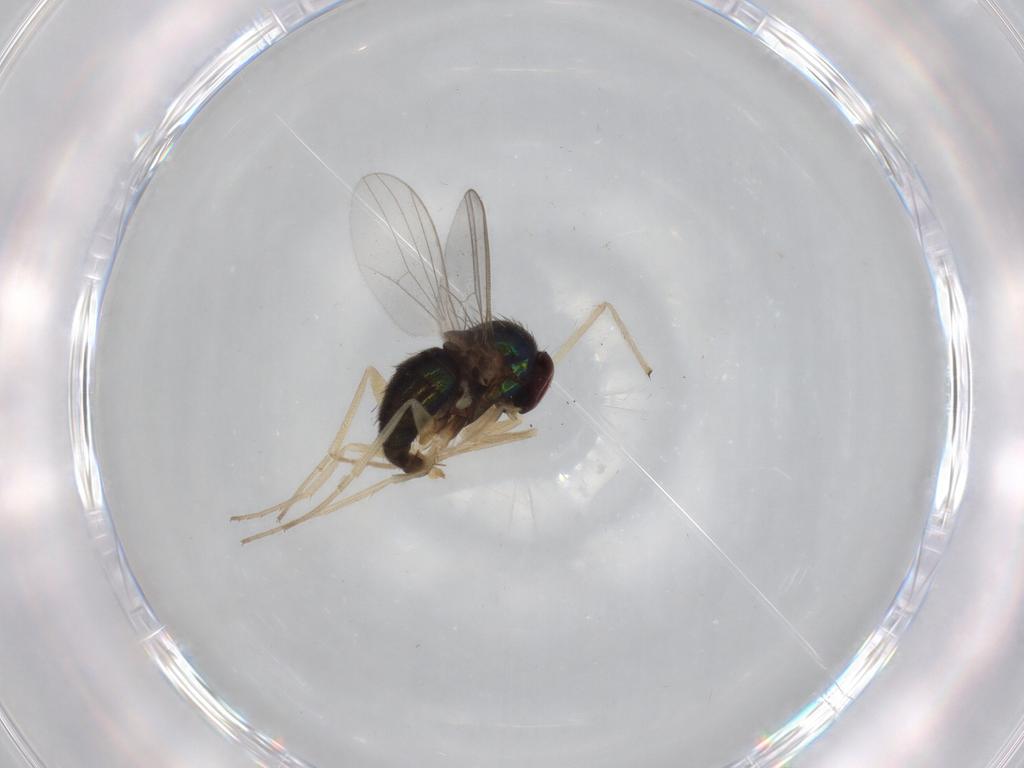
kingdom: Animalia
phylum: Arthropoda
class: Insecta
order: Diptera
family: Dolichopodidae
